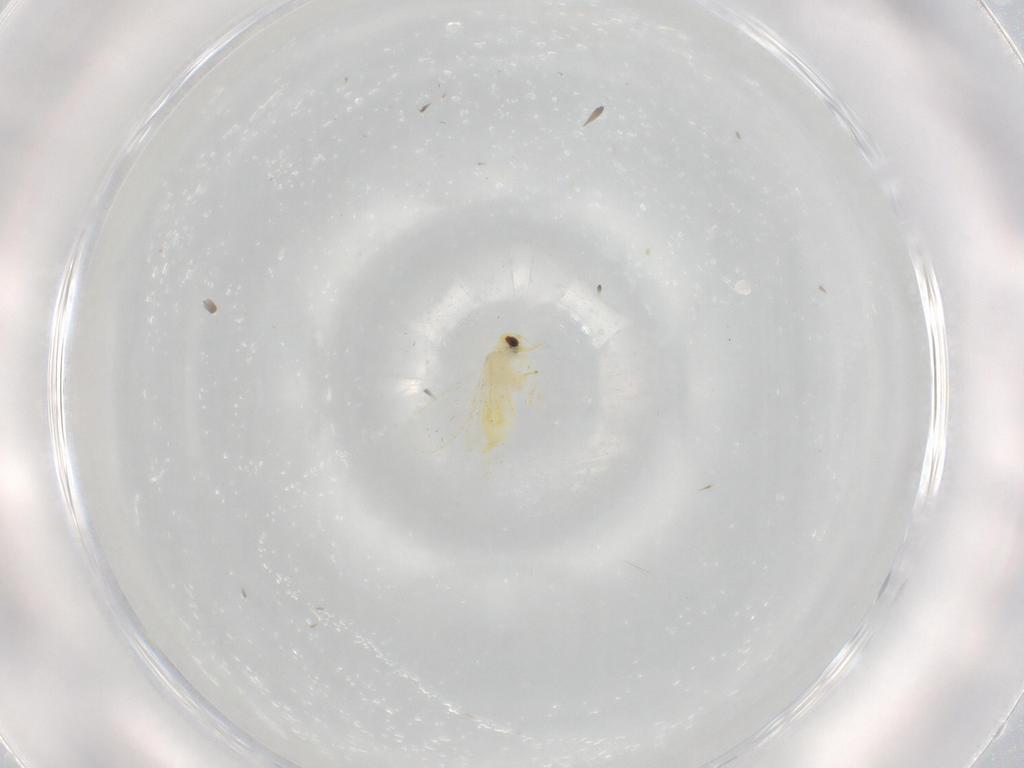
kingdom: Animalia
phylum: Arthropoda
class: Insecta
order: Hemiptera
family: Aleyrodidae
